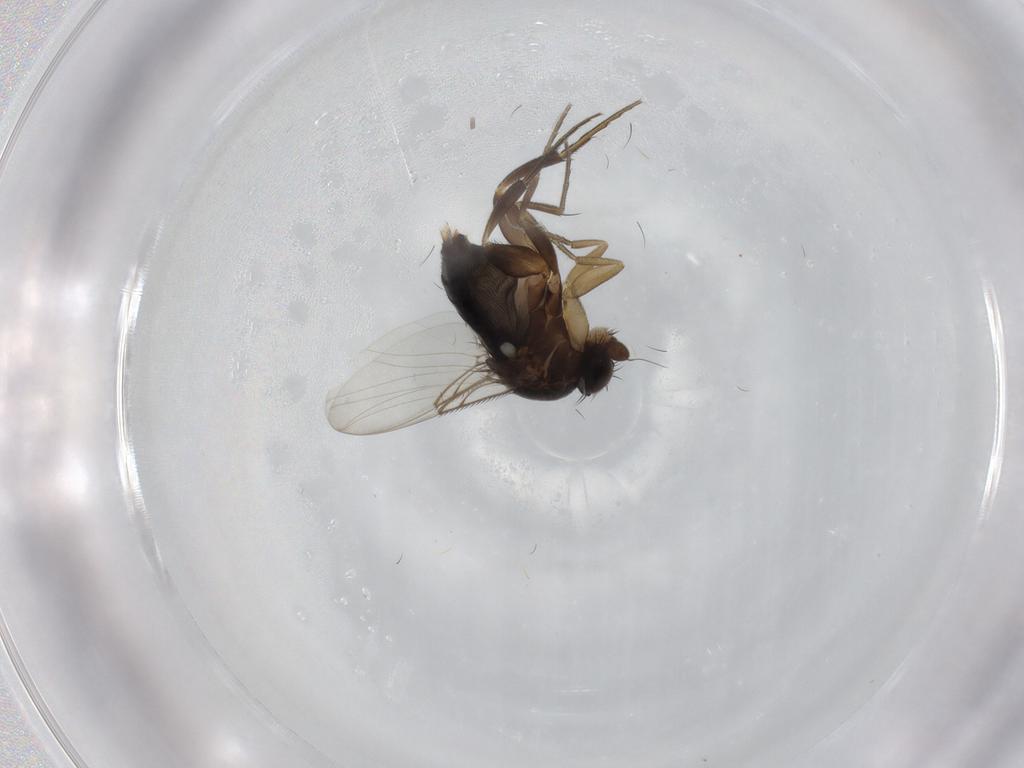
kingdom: Animalia
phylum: Arthropoda
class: Insecta
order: Diptera
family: Phoridae
